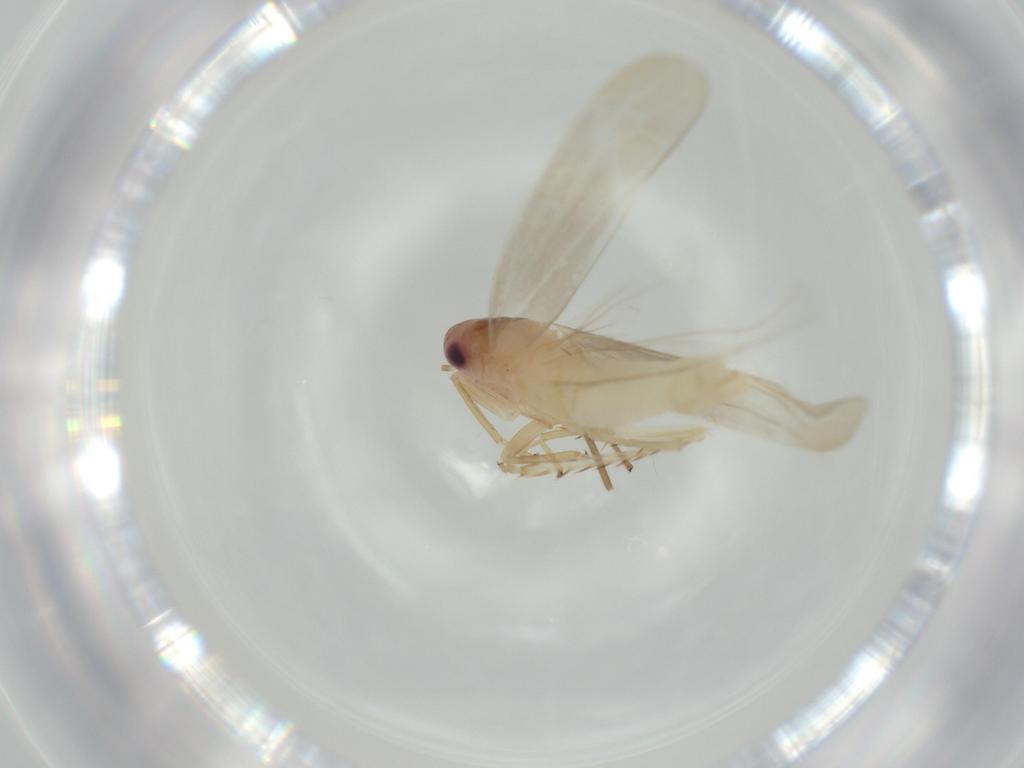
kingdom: Animalia
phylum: Arthropoda
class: Insecta
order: Hemiptera
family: Cicadellidae
